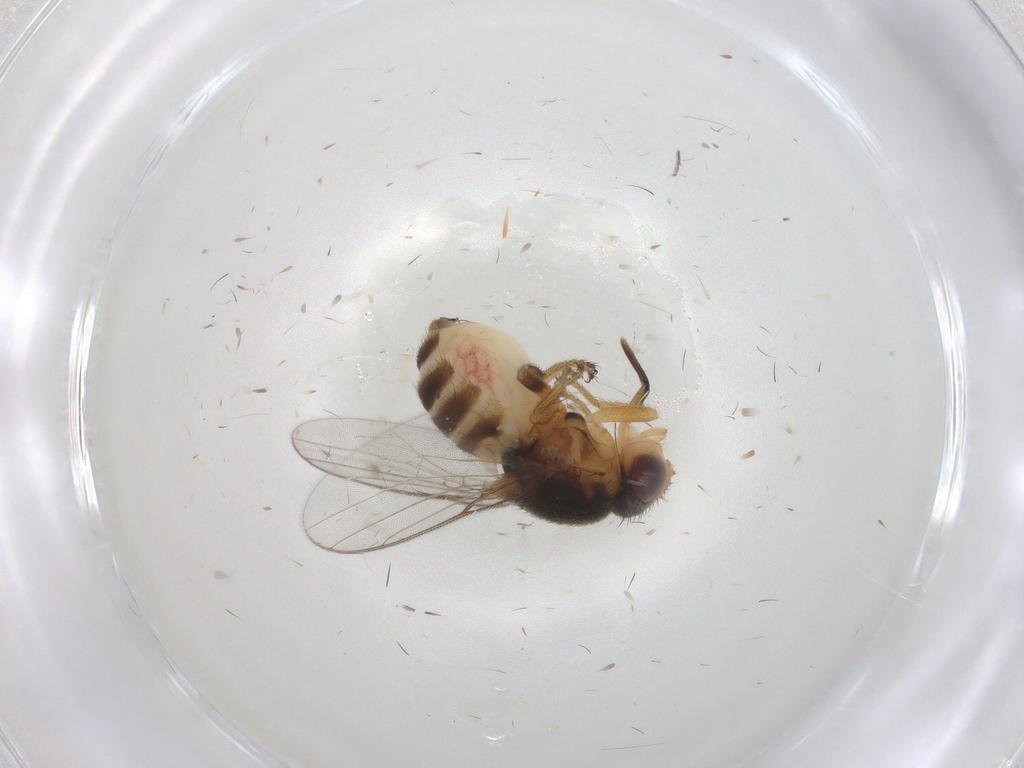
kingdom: Animalia
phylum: Arthropoda
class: Insecta
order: Diptera
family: Chloropidae
